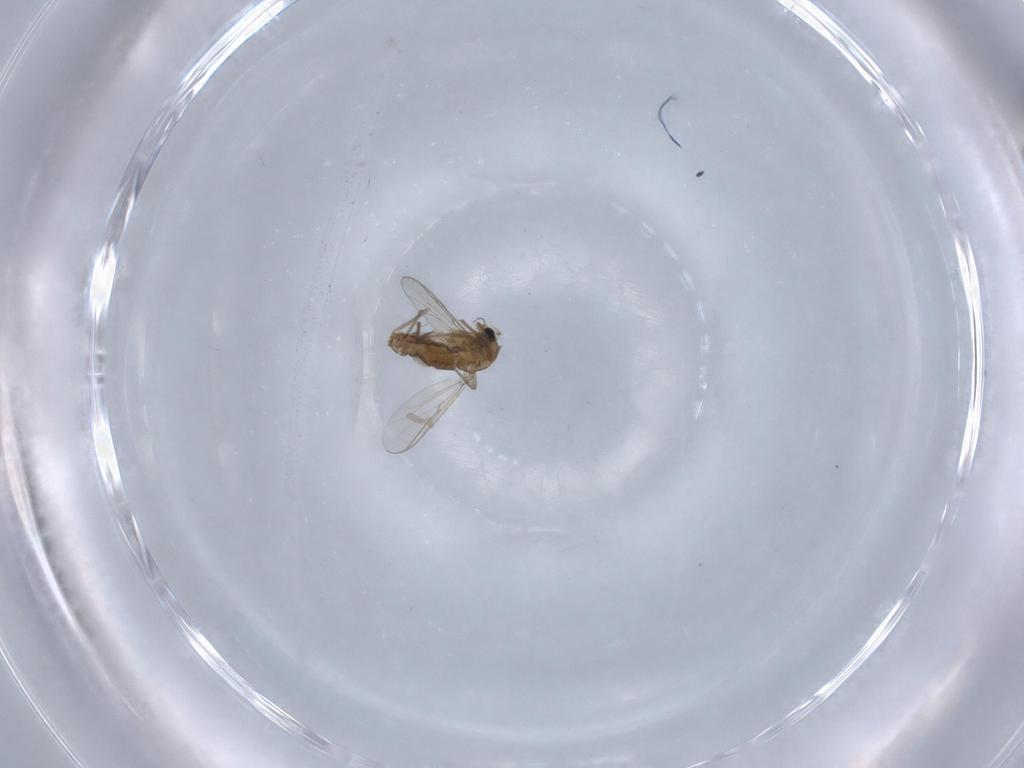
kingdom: Animalia
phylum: Arthropoda
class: Insecta
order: Diptera
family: Chironomidae
